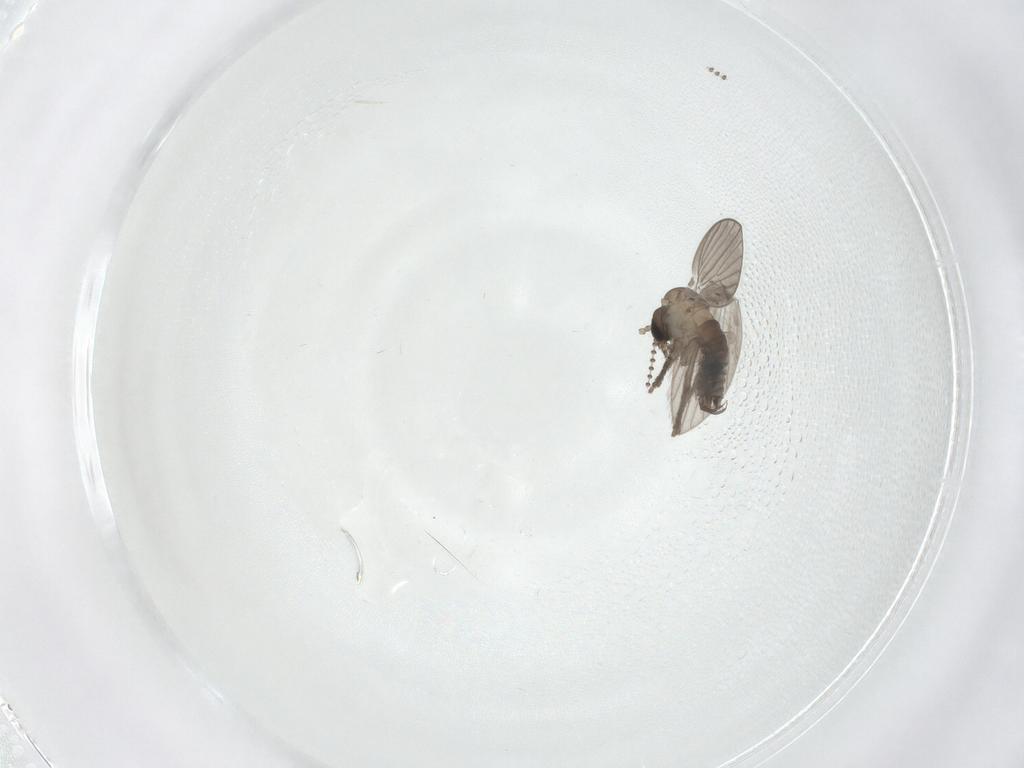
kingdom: Animalia
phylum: Arthropoda
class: Insecta
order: Diptera
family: Psychodidae
